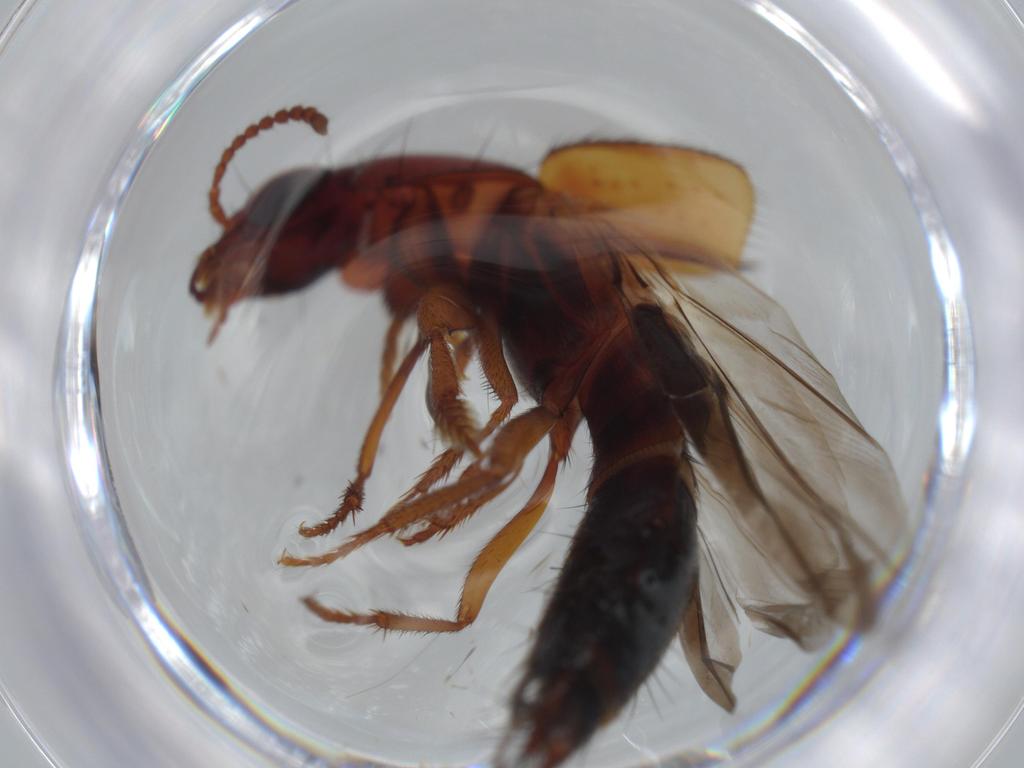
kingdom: Animalia
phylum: Arthropoda
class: Insecta
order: Coleoptera
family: Staphylinidae
